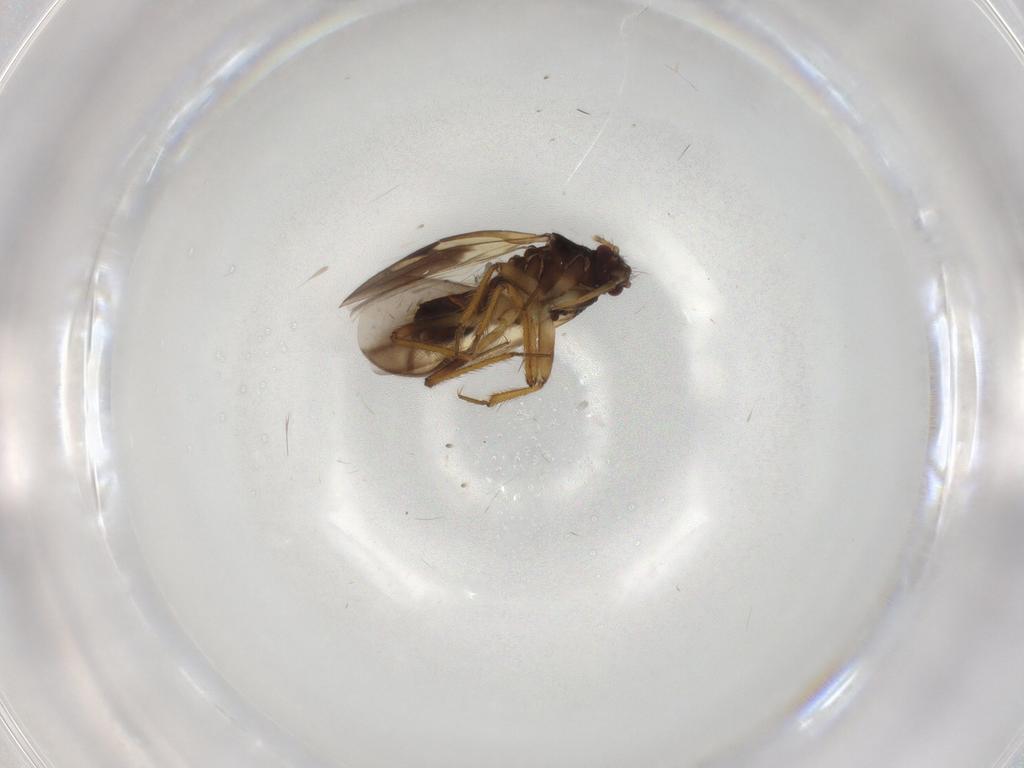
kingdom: Animalia
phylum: Arthropoda
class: Insecta
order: Hemiptera
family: Ceratocombidae
